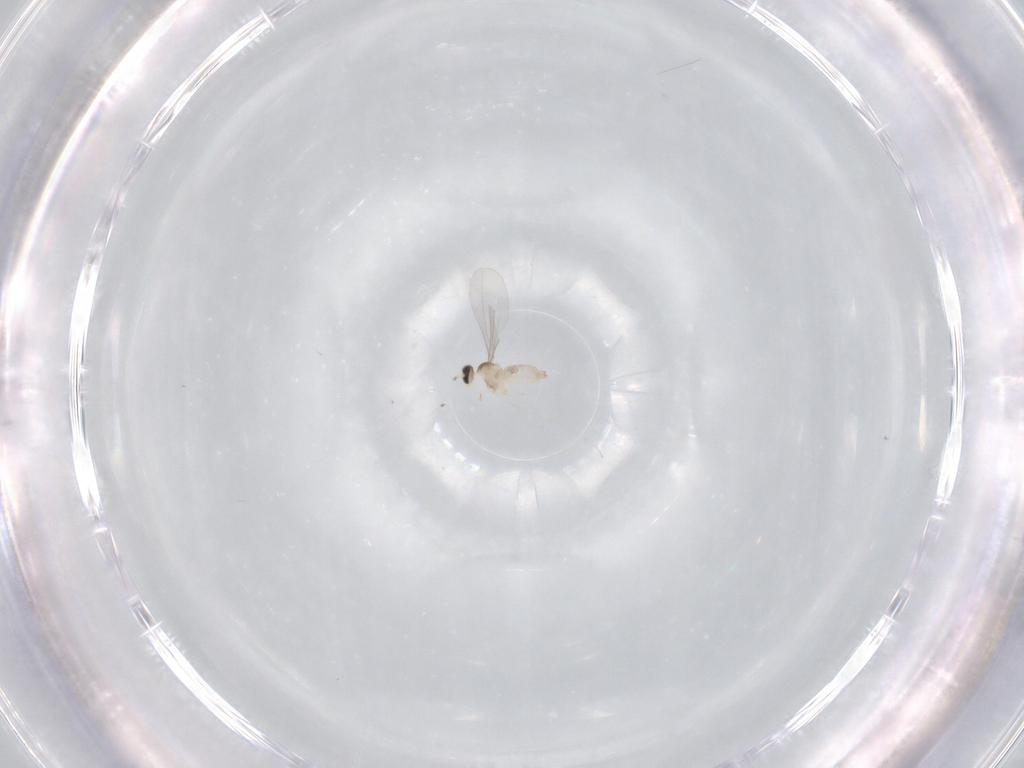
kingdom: Animalia
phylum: Arthropoda
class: Insecta
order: Diptera
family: Cecidomyiidae
